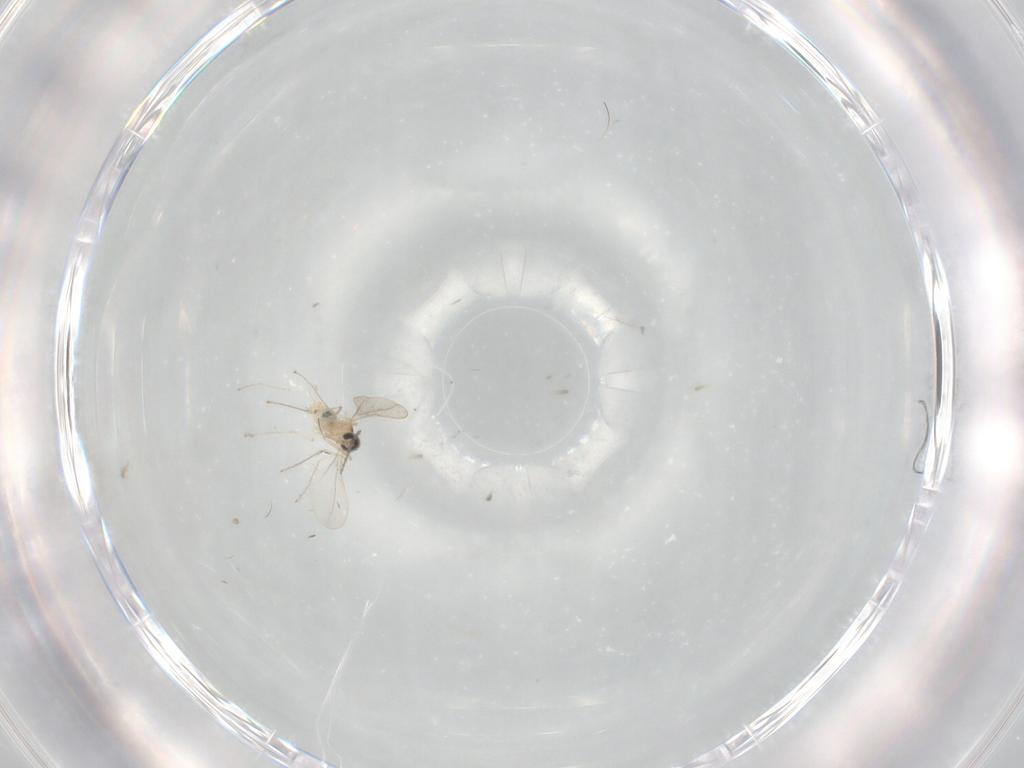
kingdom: Animalia
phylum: Arthropoda
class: Insecta
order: Diptera
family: Cecidomyiidae
